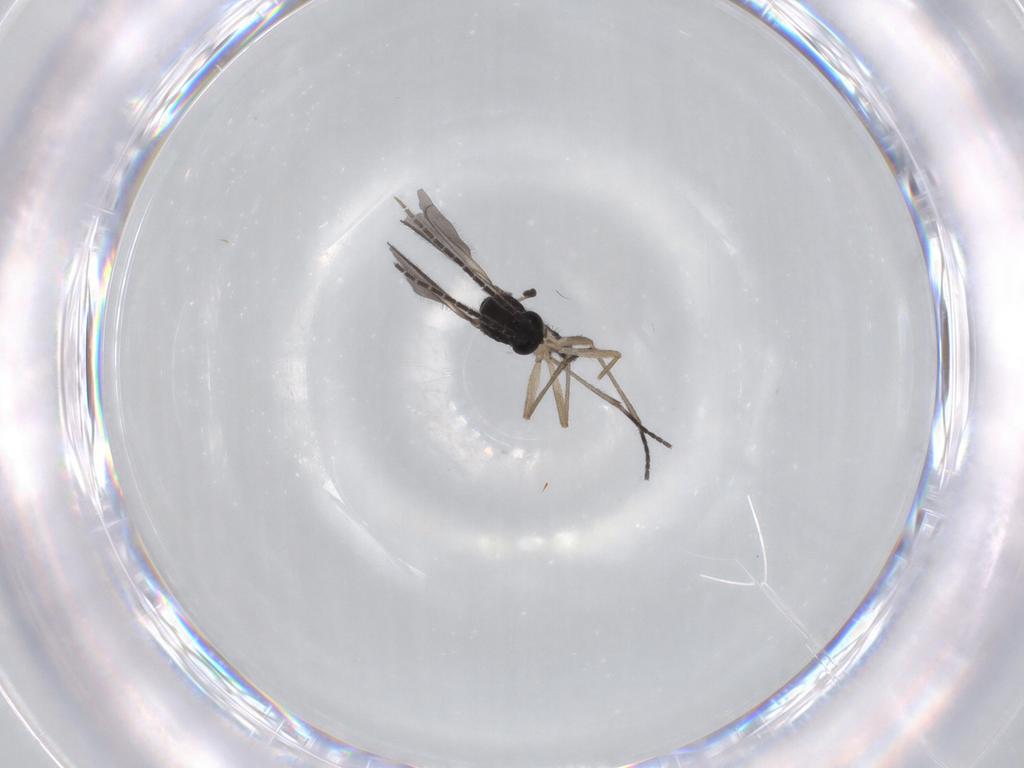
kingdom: Animalia
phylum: Arthropoda
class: Insecta
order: Diptera
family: Sciaridae
